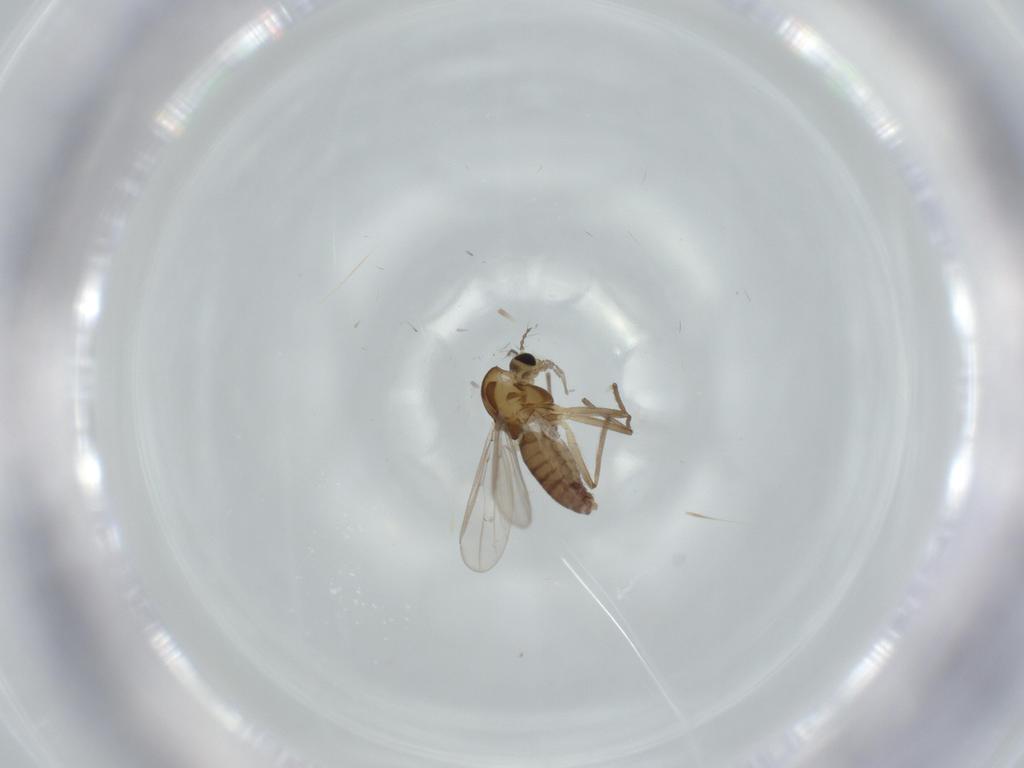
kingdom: Animalia
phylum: Arthropoda
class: Insecta
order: Diptera
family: Chironomidae
